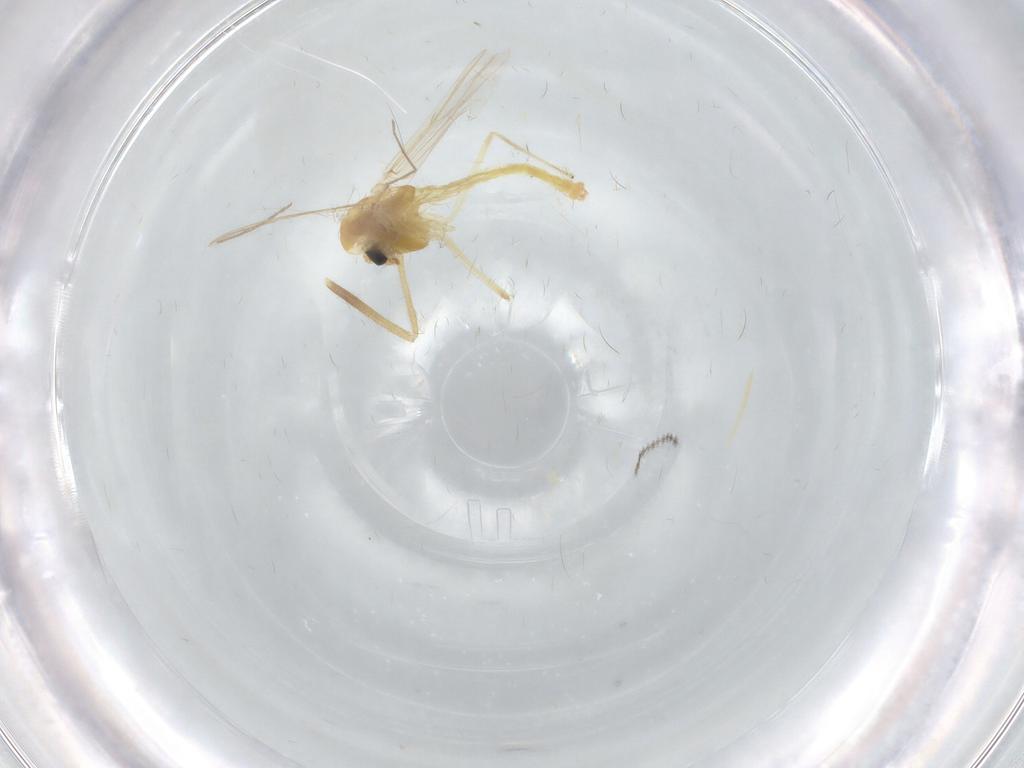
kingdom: Animalia
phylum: Arthropoda
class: Insecta
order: Diptera
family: Chironomidae
